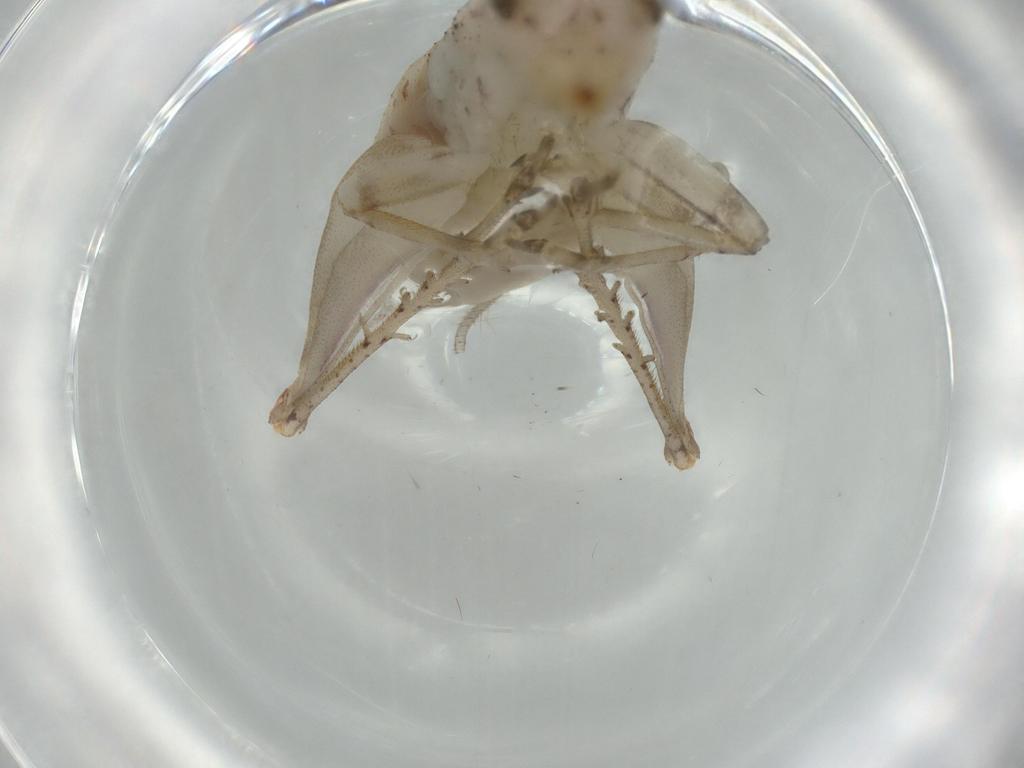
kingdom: Animalia
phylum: Arthropoda
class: Insecta
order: Orthoptera
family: Trigonidiidae
